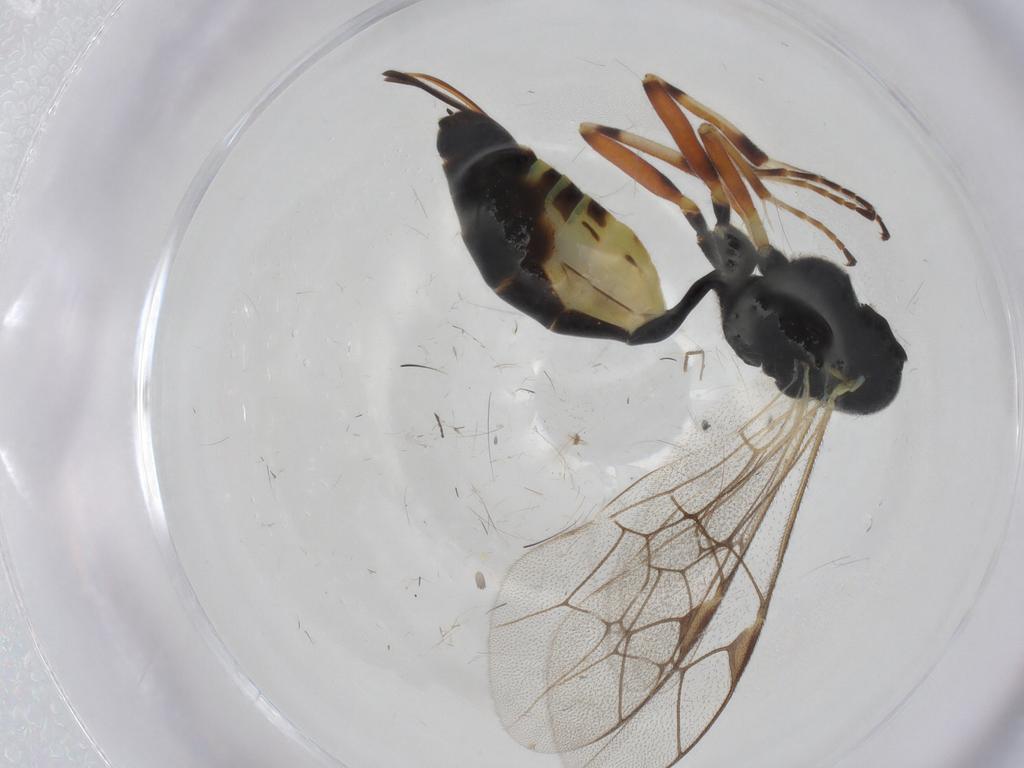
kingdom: Animalia
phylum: Arthropoda
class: Insecta
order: Hymenoptera
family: Ichneumonidae
